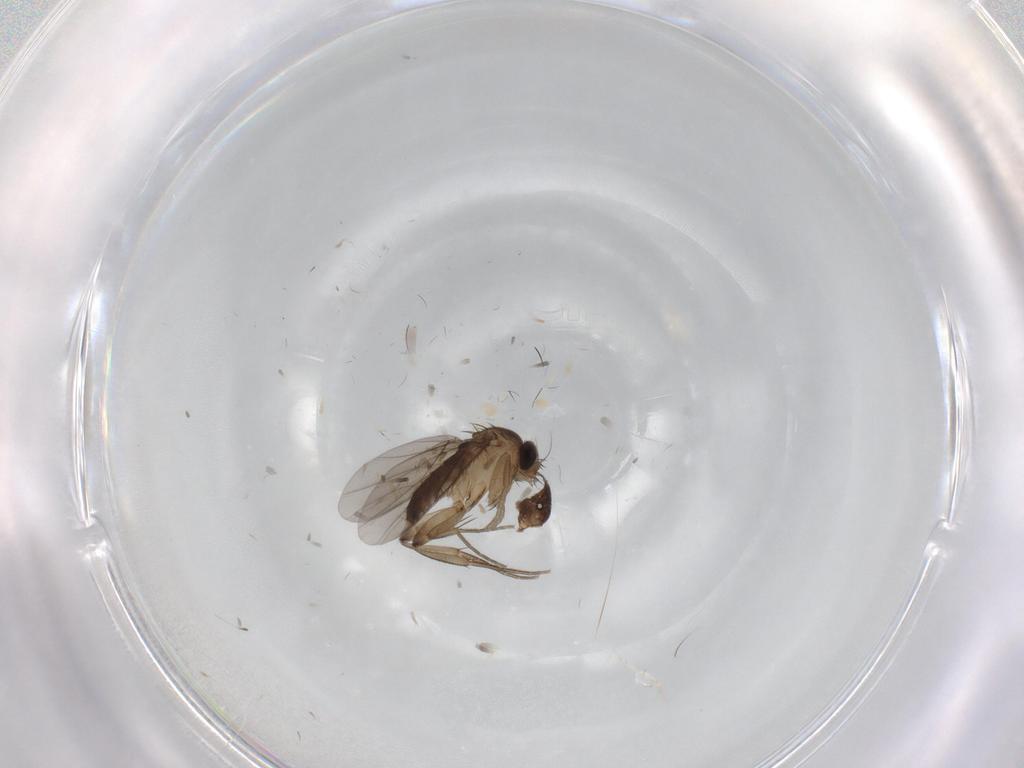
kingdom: Animalia
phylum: Arthropoda
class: Insecta
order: Diptera
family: Phoridae
